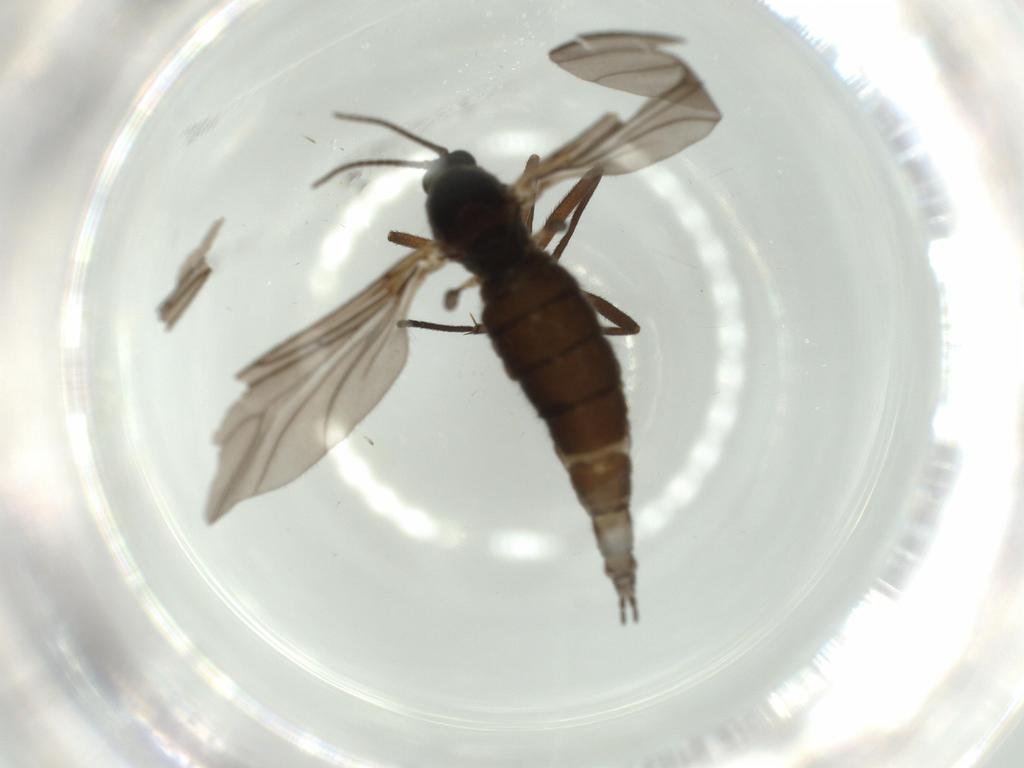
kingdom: Animalia
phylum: Arthropoda
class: Insecta
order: Diptera
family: Sciaridae
